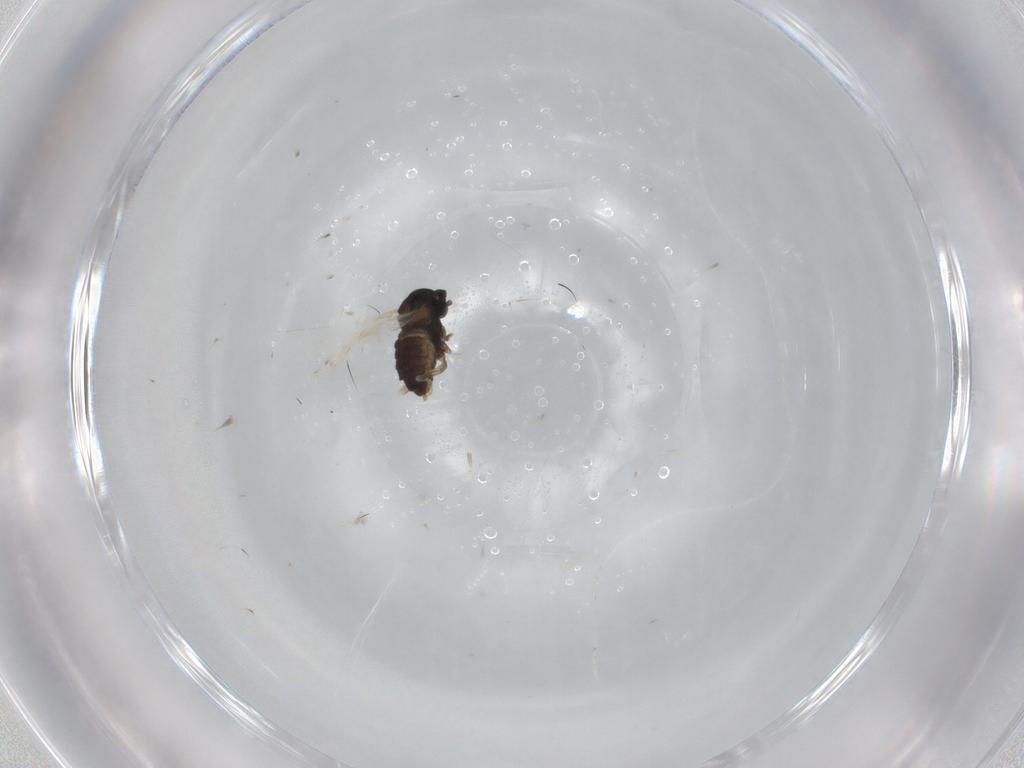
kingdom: Animalia
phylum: Arthropoda
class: Insecta
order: Diptera
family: Cecidomyiidae
